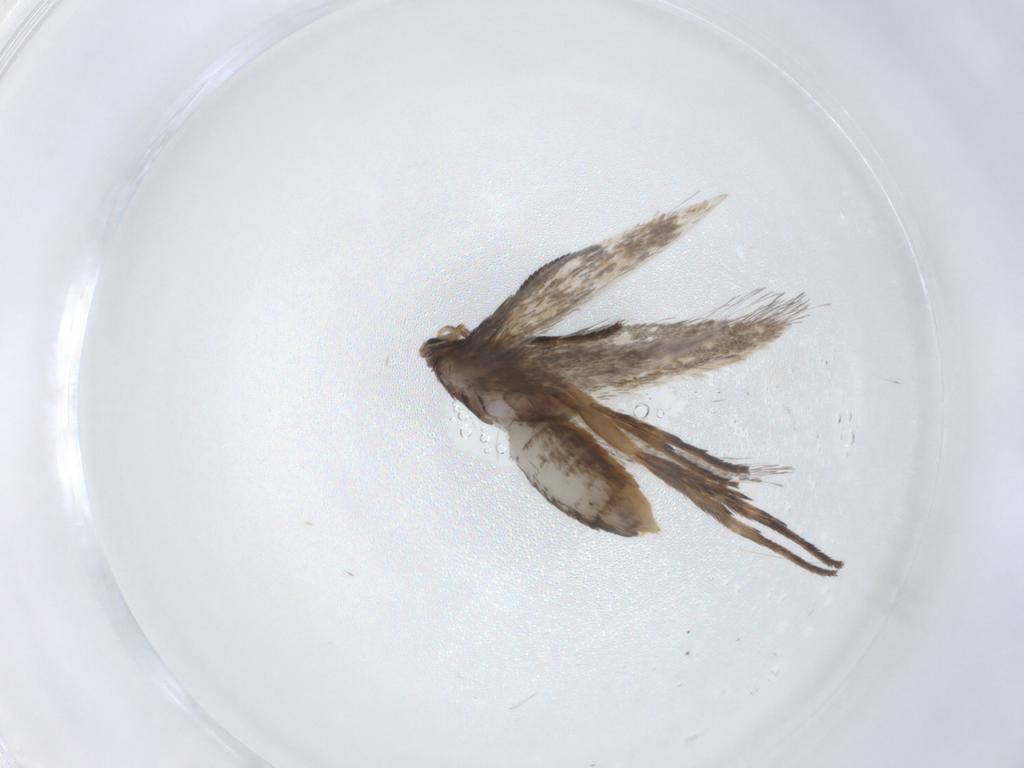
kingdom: Animalia
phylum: Arthropoda
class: Insecta
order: Lepidoptera
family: Nepticulidae
